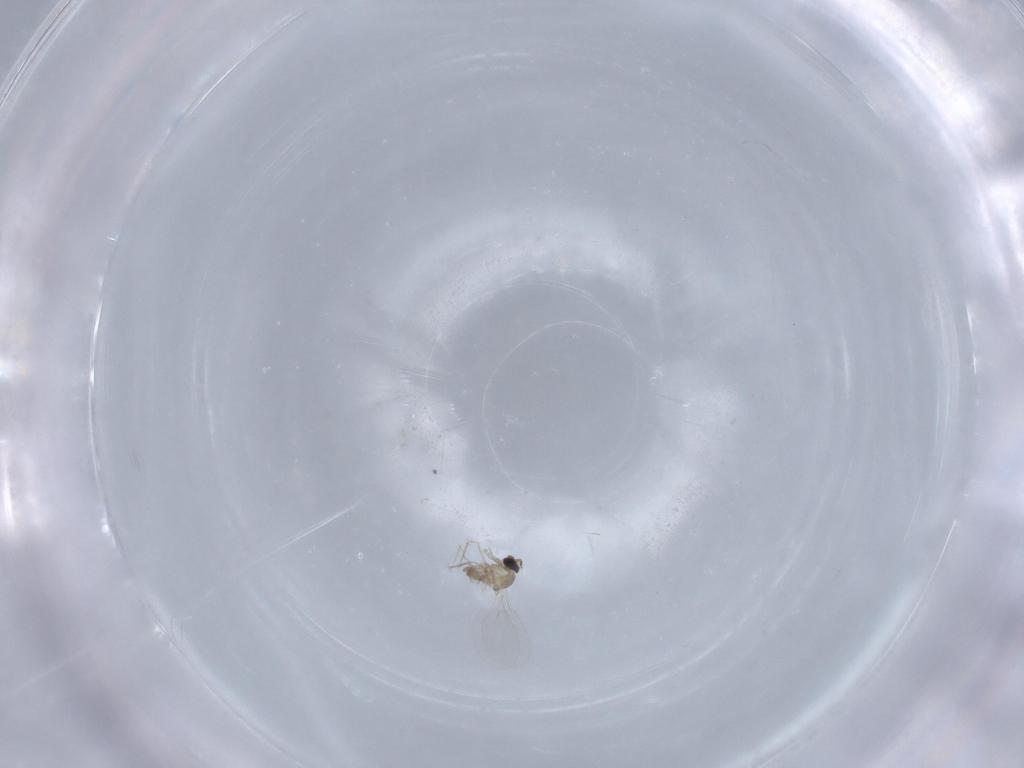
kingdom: Animalia
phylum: Arthropoda
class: Insecta
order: Diptera
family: Cecidomyiidae
